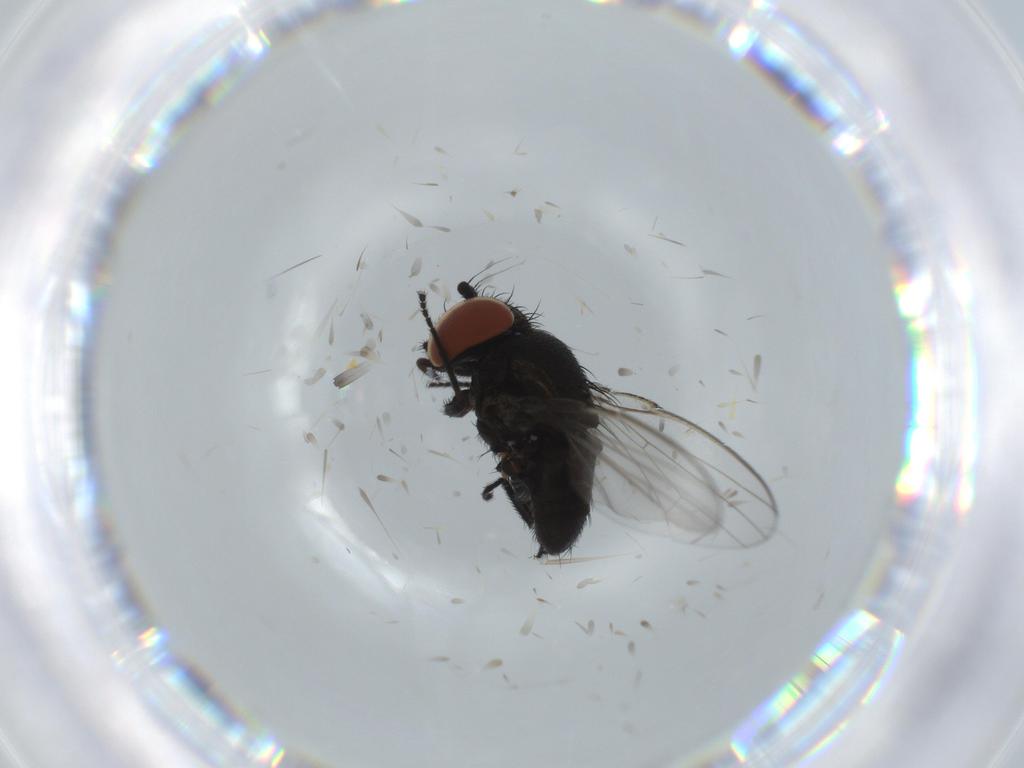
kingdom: Animalia
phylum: Arthropoda
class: Insecta
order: Diptera
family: Milichiidae
